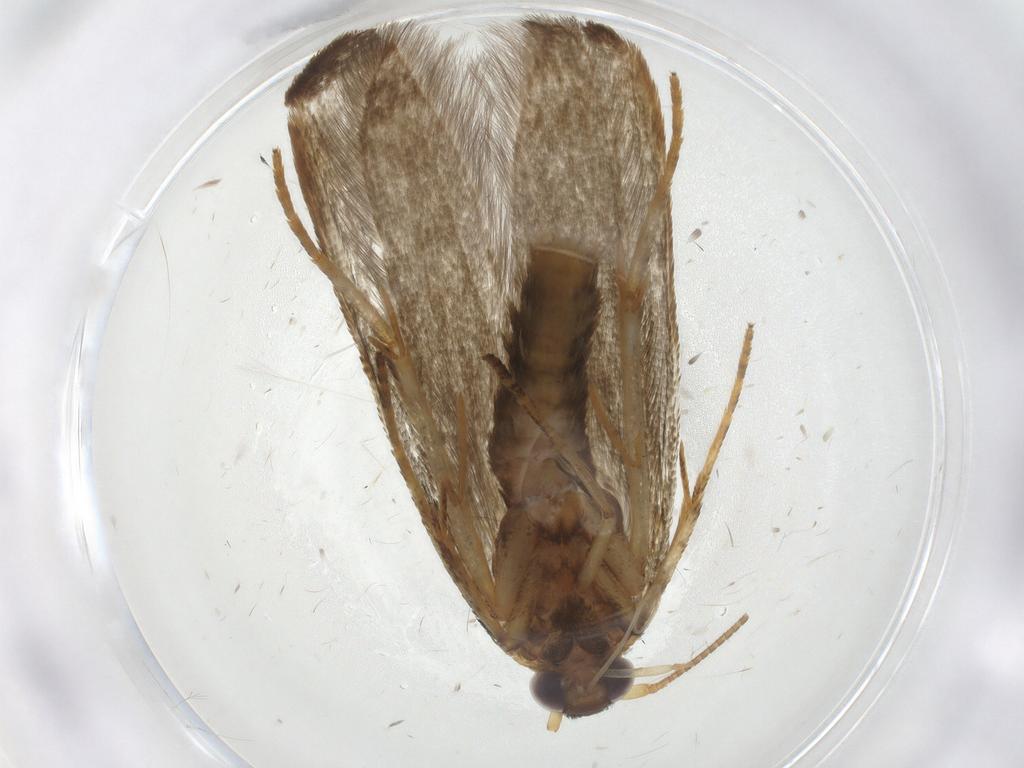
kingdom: Animalia
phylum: Arthropoda
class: Insecta
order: Lepidoptera
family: Blastobasidae
